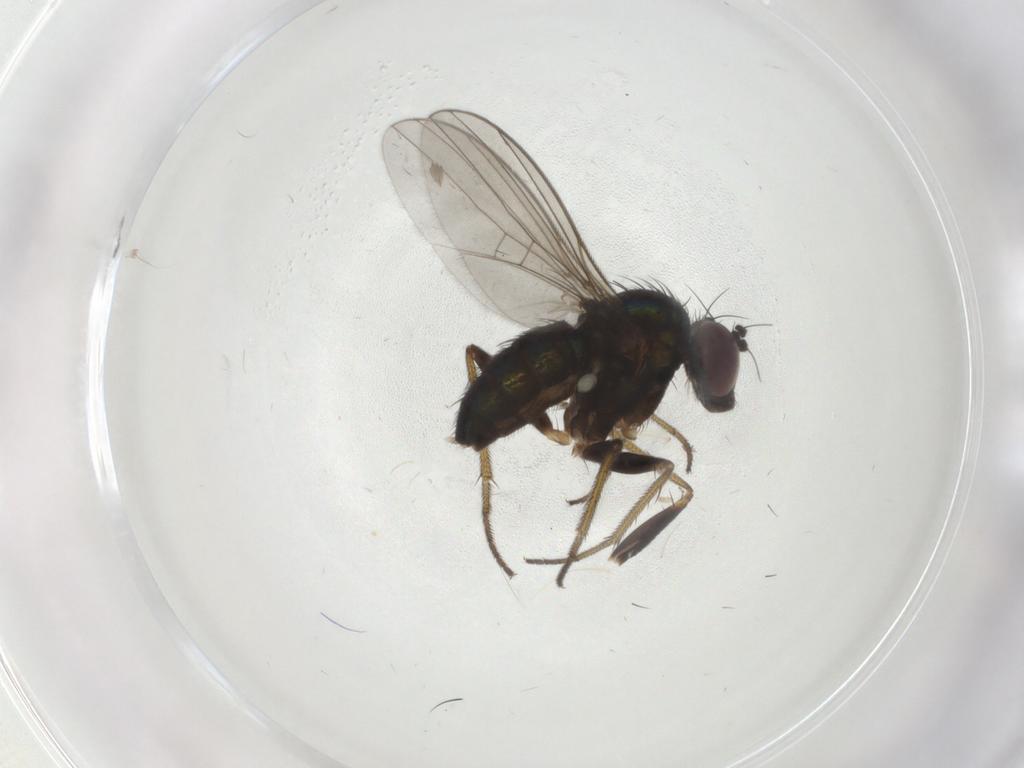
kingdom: Animalia
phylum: Arthropoda
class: Insecta
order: Diptera
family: Dolichopodidae
